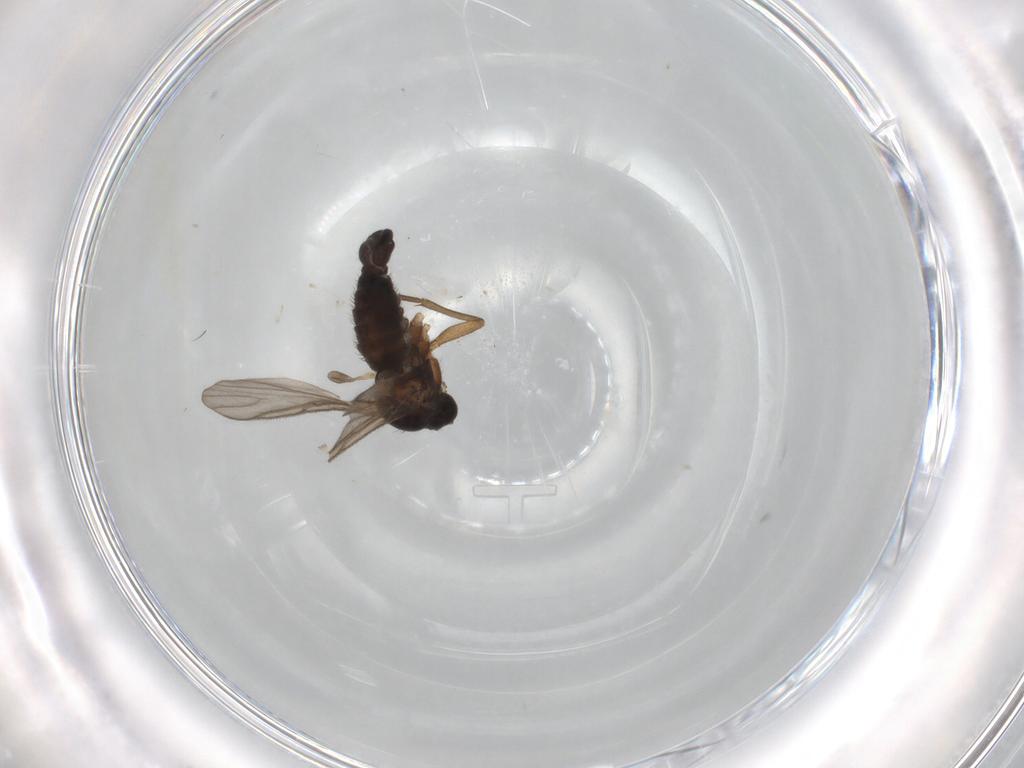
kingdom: Animalia
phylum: Arthropoda
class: Insecta
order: Diptera
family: Sciaridae
